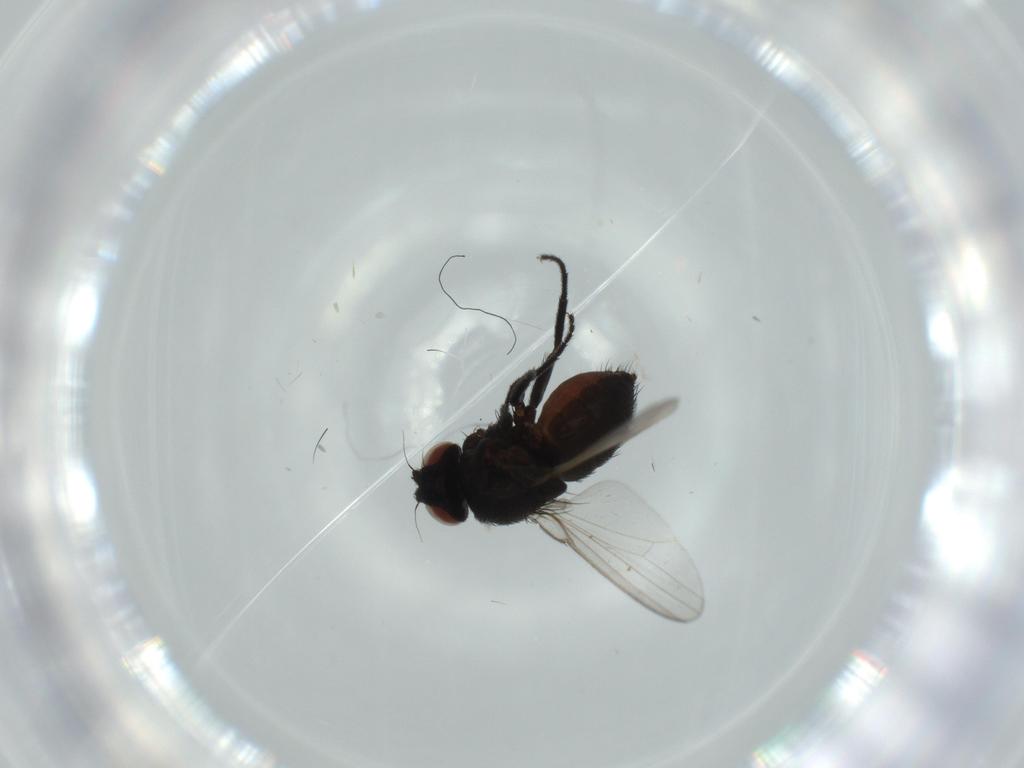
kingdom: Animalia
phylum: Arthropoda
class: Insecta
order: Diptera
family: Milichiidae
